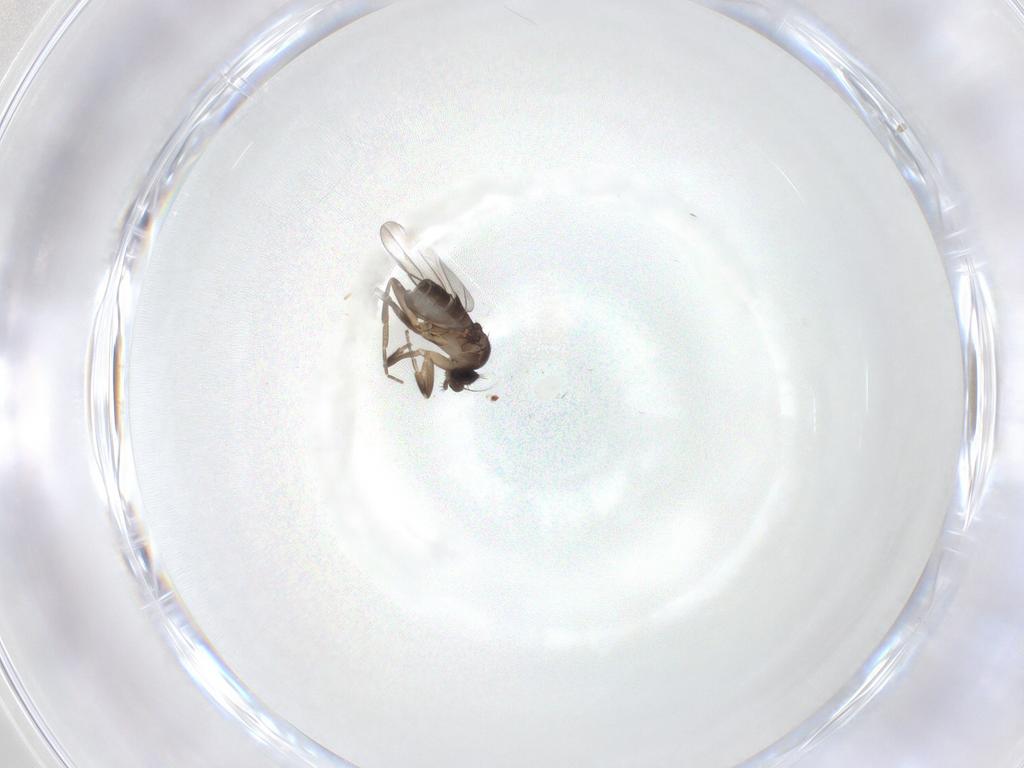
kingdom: Animalia
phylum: Arthropoda
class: Insecta
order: Diptera
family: Phoridae
